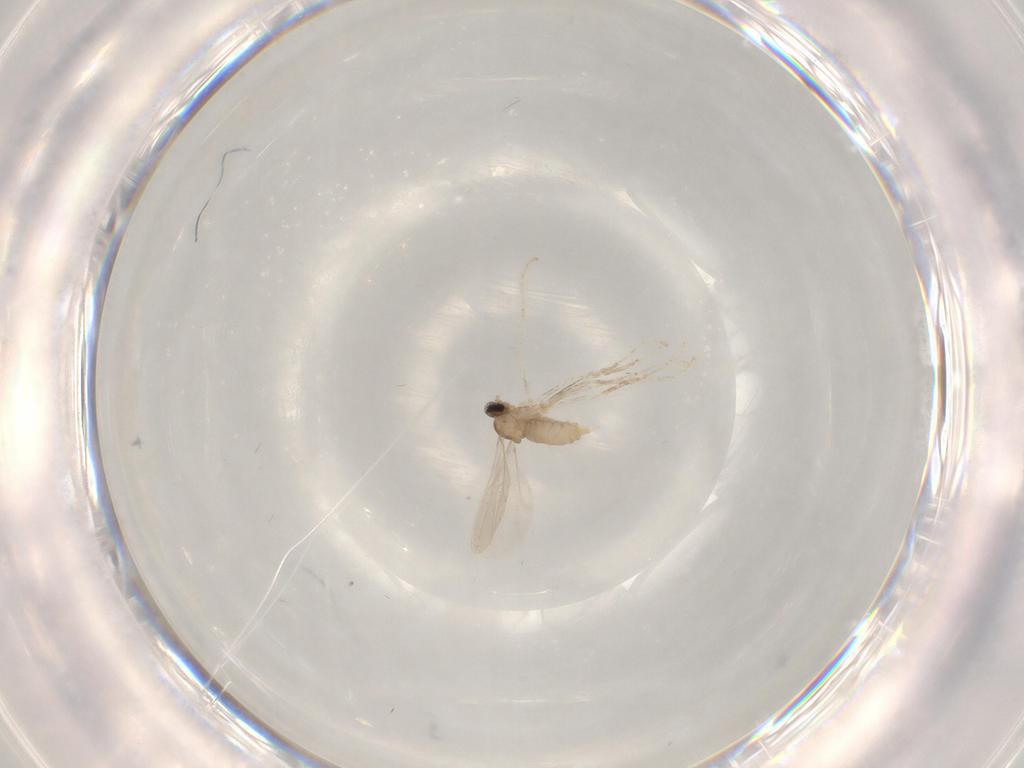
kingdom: Animalia
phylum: Arthropoda
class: Insecta
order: Diptera
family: Cecidomyiidae
